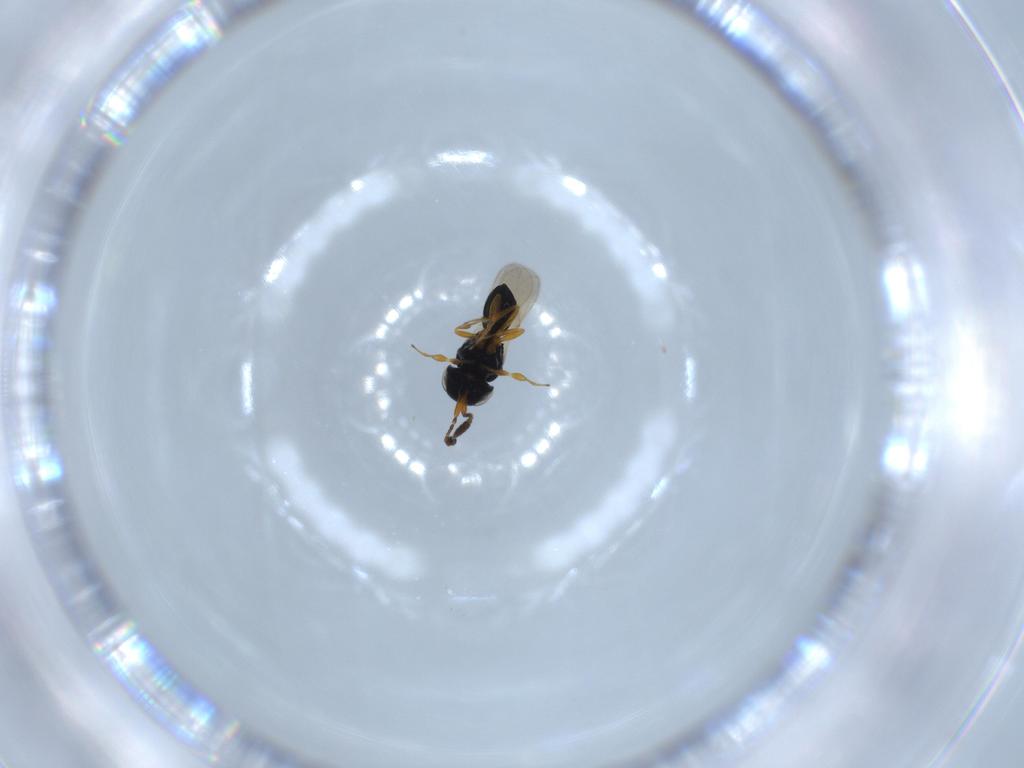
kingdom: Animalia
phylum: Arthropoda
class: Insecta
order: Hymenoptera
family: Scelionidae
